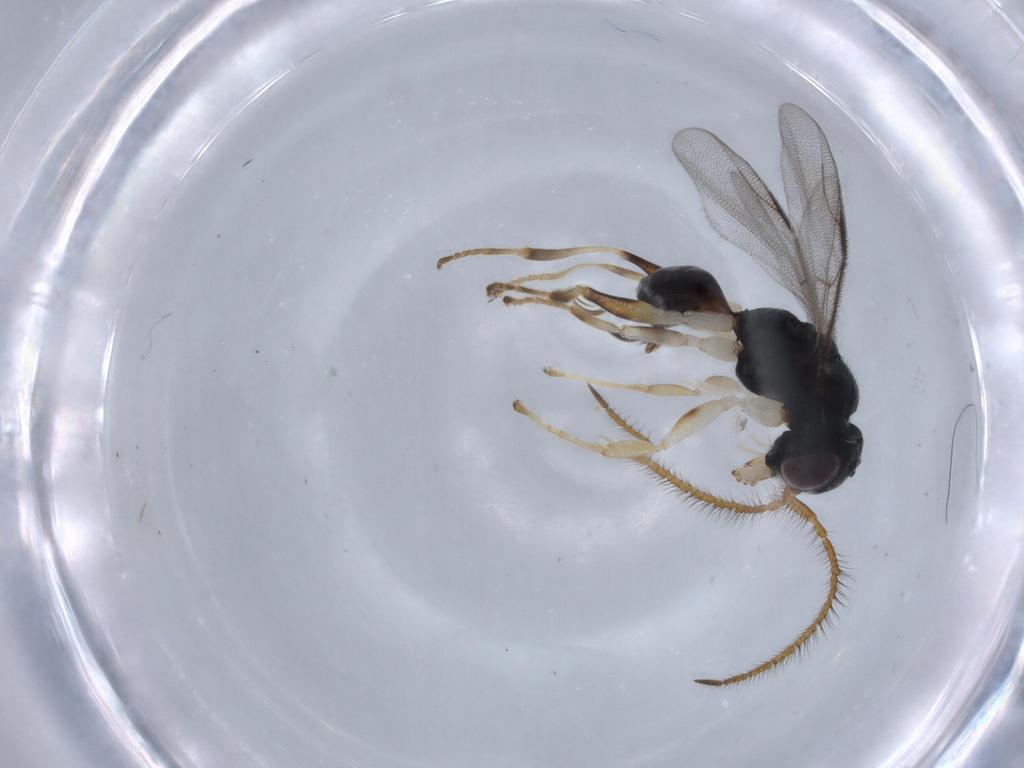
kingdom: Animalia
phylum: Arthropoda
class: Insecta
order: Hymenoptera
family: Dryinidae
